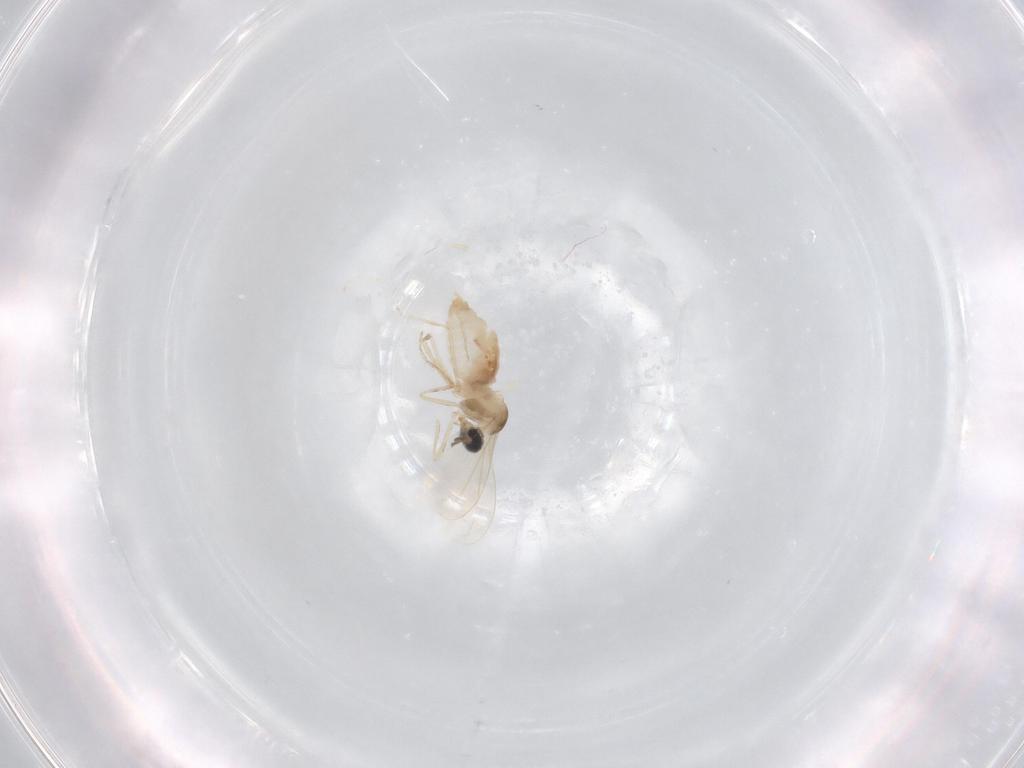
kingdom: Animalia
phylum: Arthropoda
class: Insecta
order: Diptera
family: Cecidomyiidae
